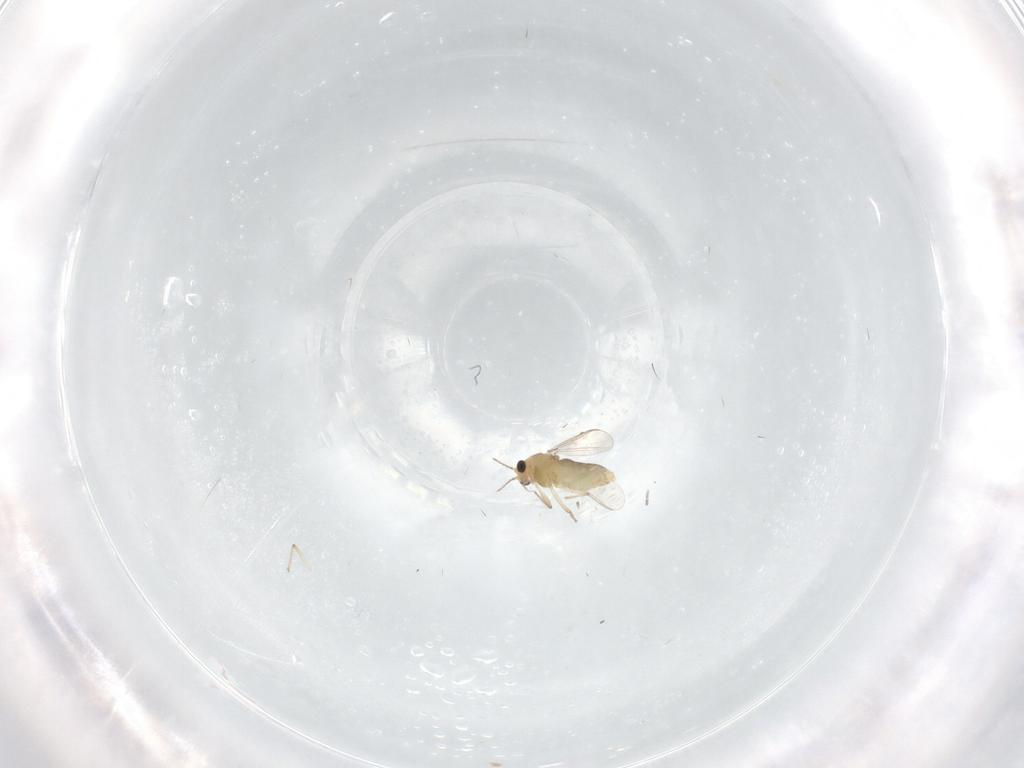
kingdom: Animalia
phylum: Arthropoda
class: Insecta
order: Diptera
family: Chironomidae
